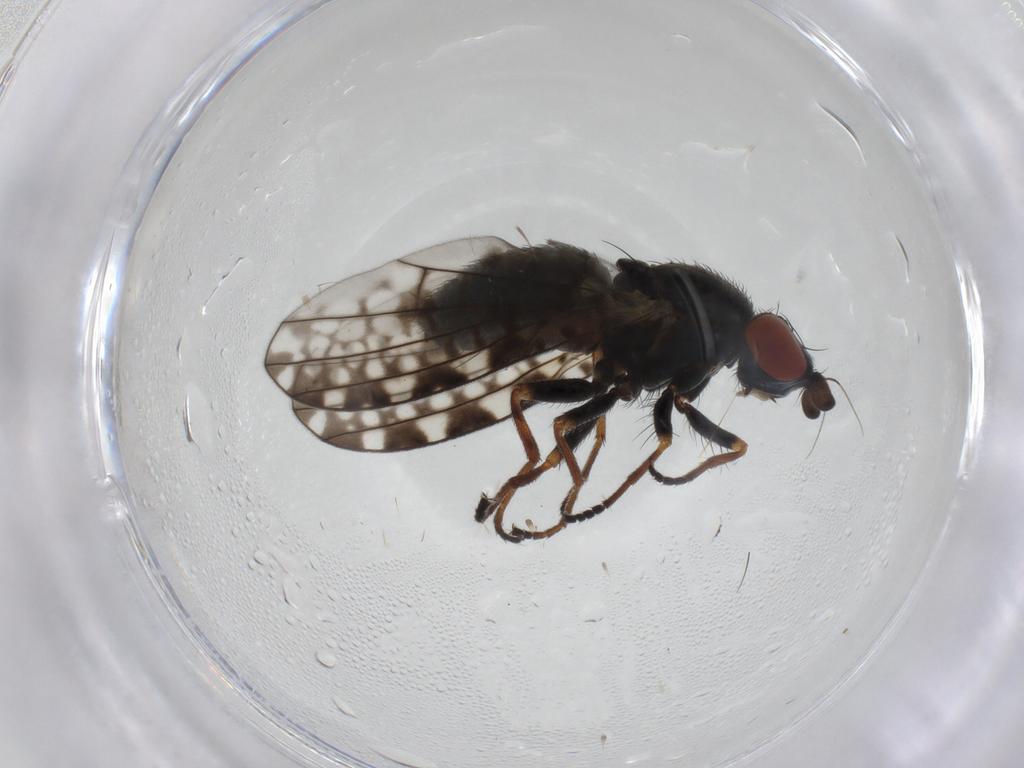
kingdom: Animalia
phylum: Arthropoda
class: Insecta
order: Diptera
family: Chamaemyiidae
